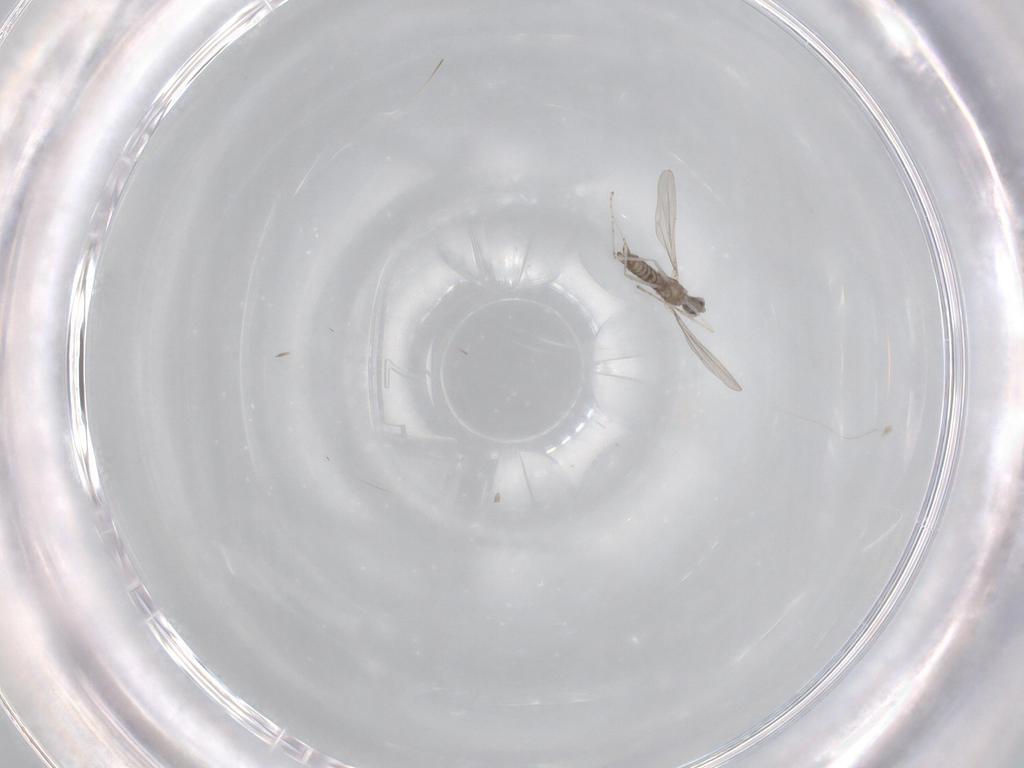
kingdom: Animalia
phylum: Arthropoda
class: Insecta
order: Diptera
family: Cecidomyiidae
